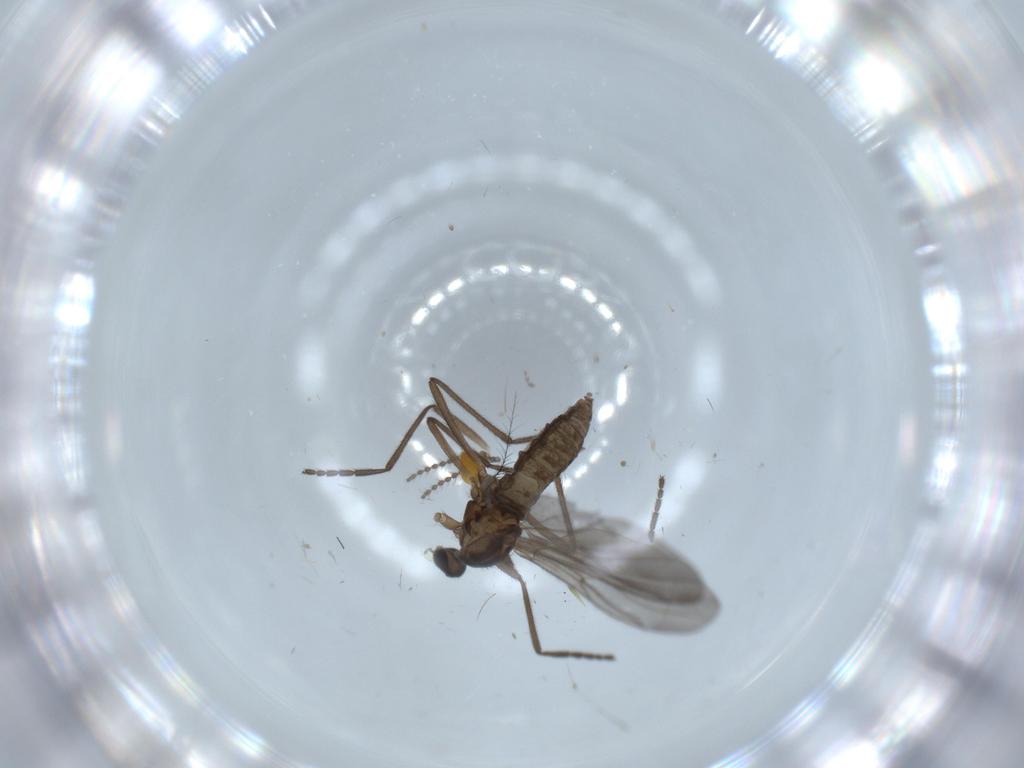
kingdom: Animalia
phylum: Arthropoda
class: Insecta
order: Diptera
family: Cecidomyiidae
